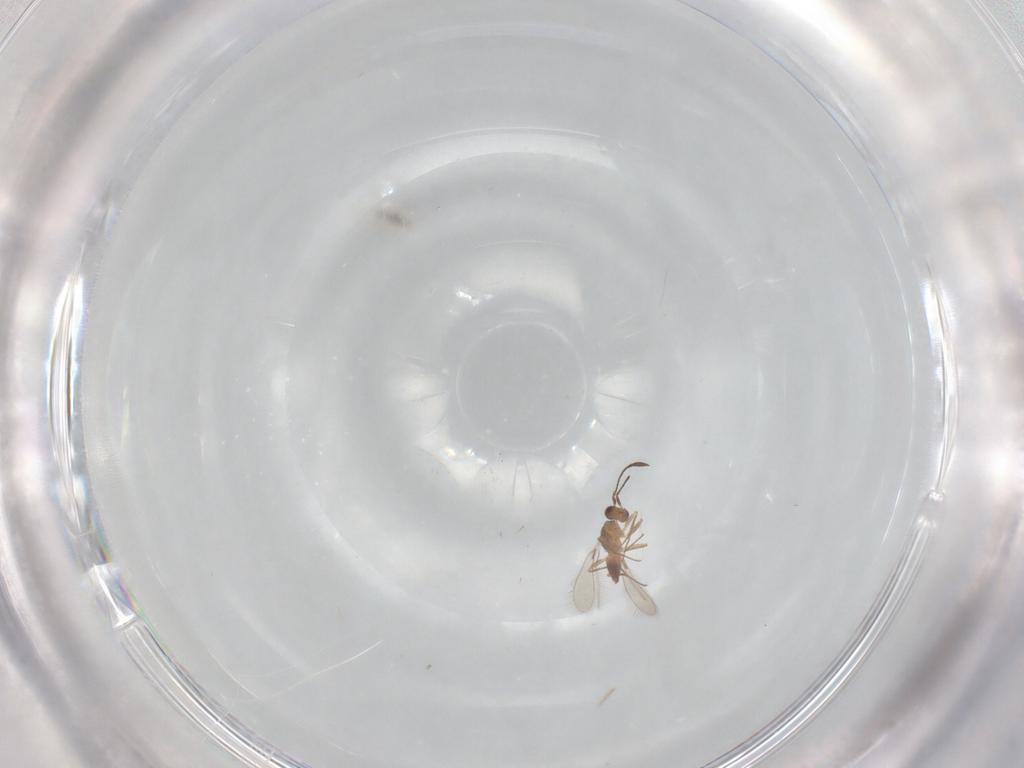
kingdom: Animalia
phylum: Arthropoda
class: Insecta
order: Hymenoptera
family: Mymaridae
